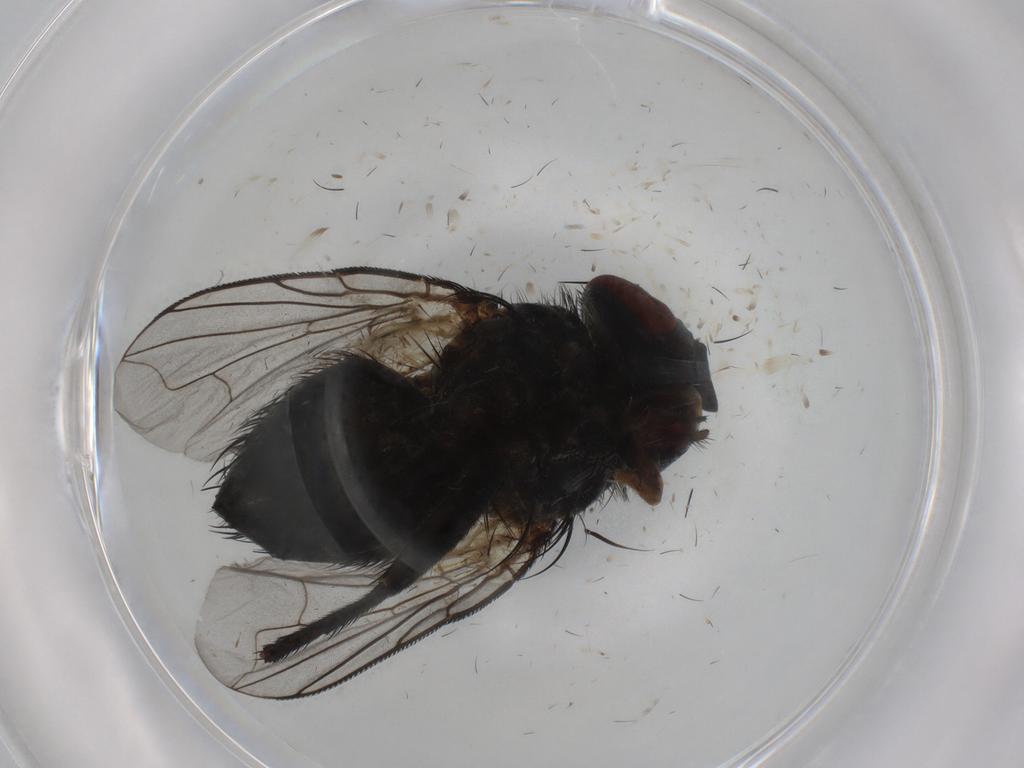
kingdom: Animalia
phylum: Arthropoda
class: Insecta
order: Diptera
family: Tachinidae
